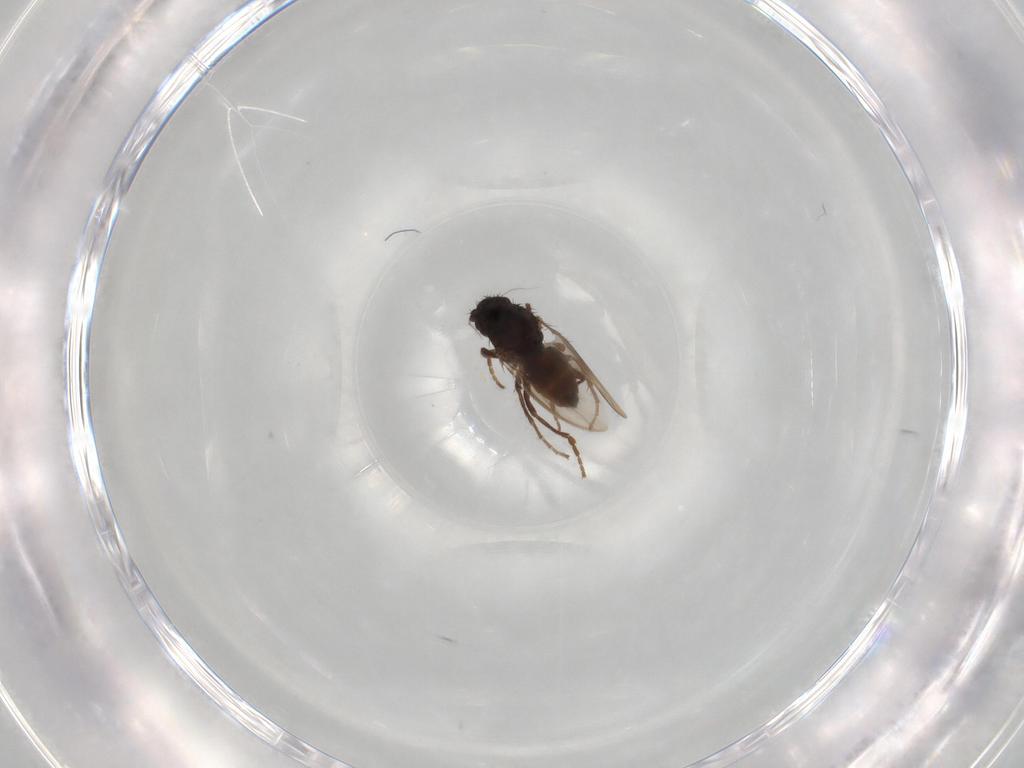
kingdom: Animalia
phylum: Arthropoda
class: Insecta
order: Diptera
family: Sphaeroceridae
